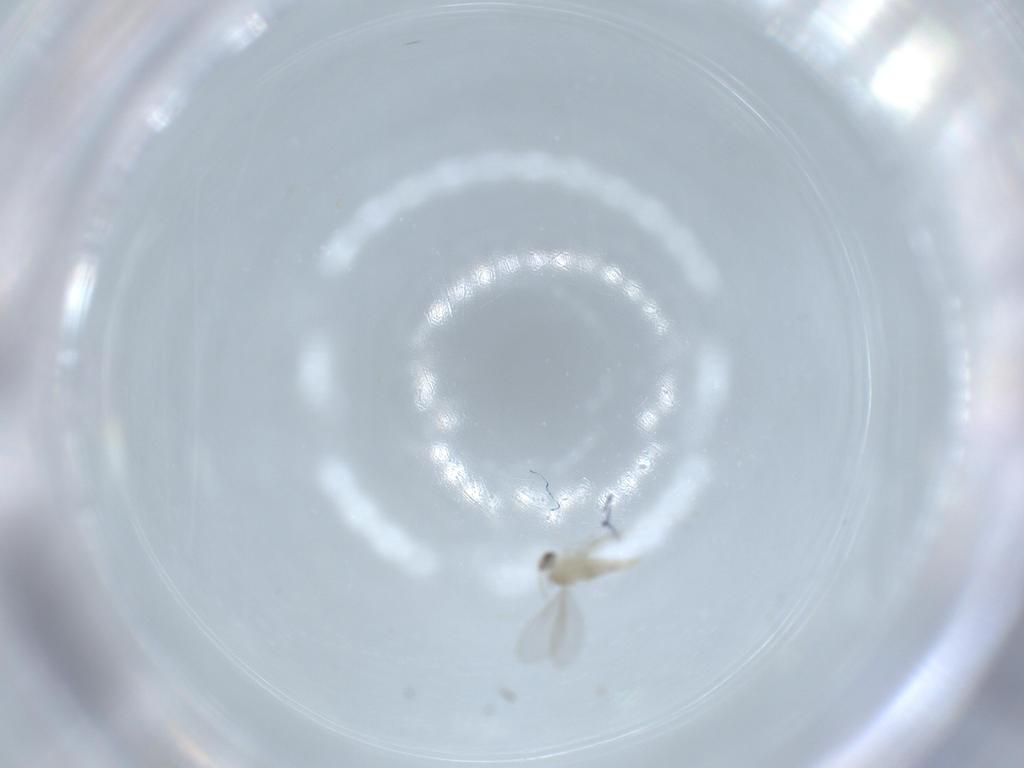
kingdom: Animalia
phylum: Arthropoda
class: Insecta
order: Diptera
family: Cecidomyiidae
